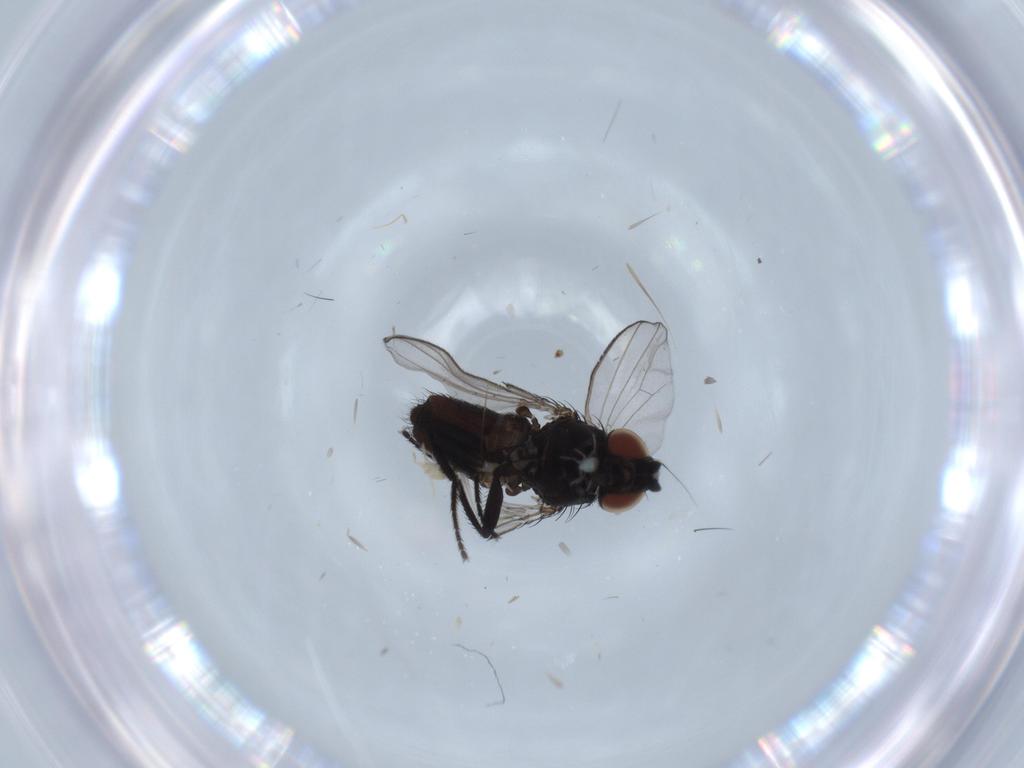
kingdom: Animalia
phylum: Arthropoda
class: Insecta
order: Diptera
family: Milichiidae
